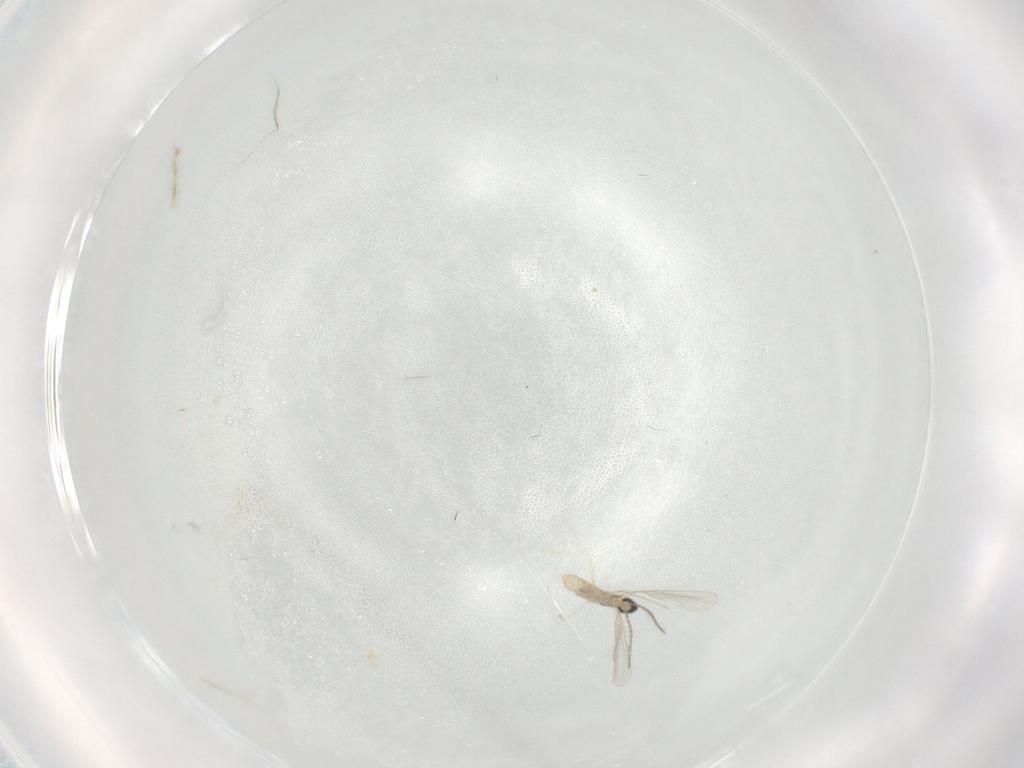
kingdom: Animalia
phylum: Arthropoda
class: Insecta
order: Diptera
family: Cecidomyiidae
